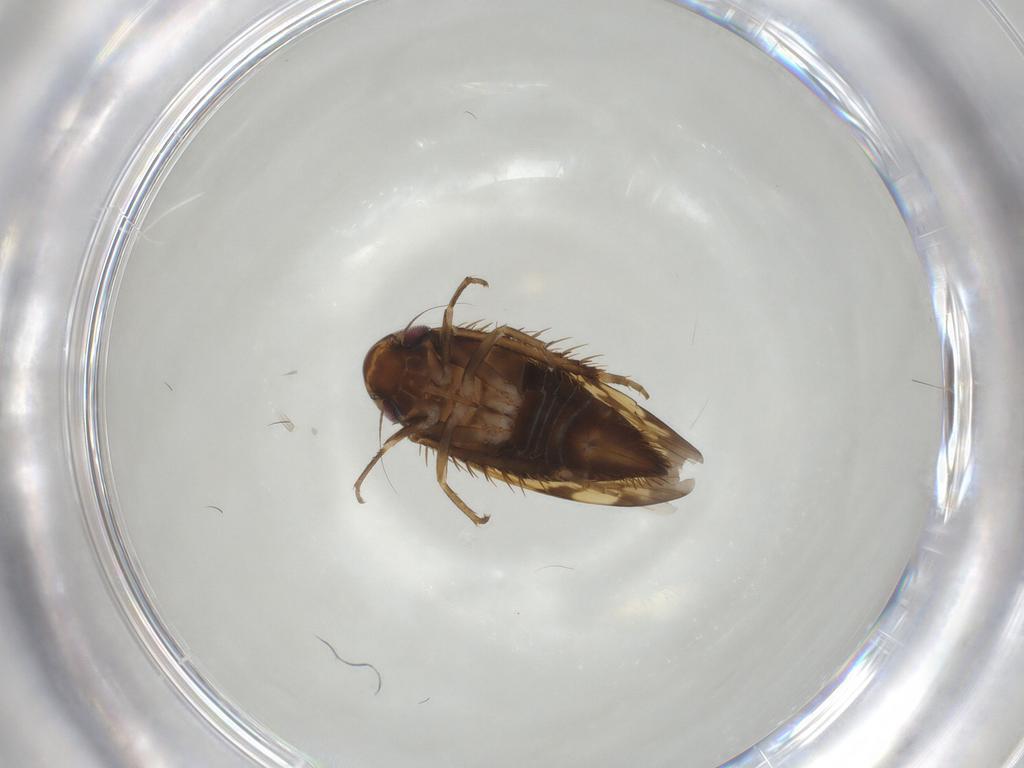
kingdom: Animalia
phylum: Arthropoda
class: Insecta
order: Hemiptera
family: Cicadellidae
